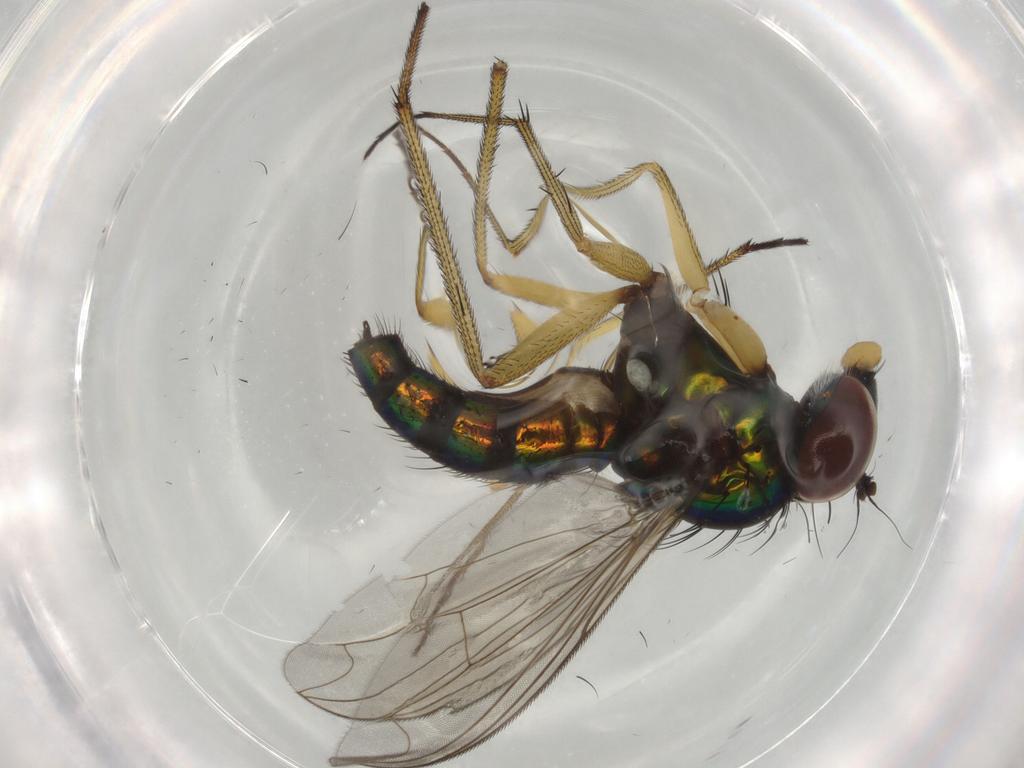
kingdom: Animalia
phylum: Arthropoda
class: Insecta
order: Diptera
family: Dolichopodidae
